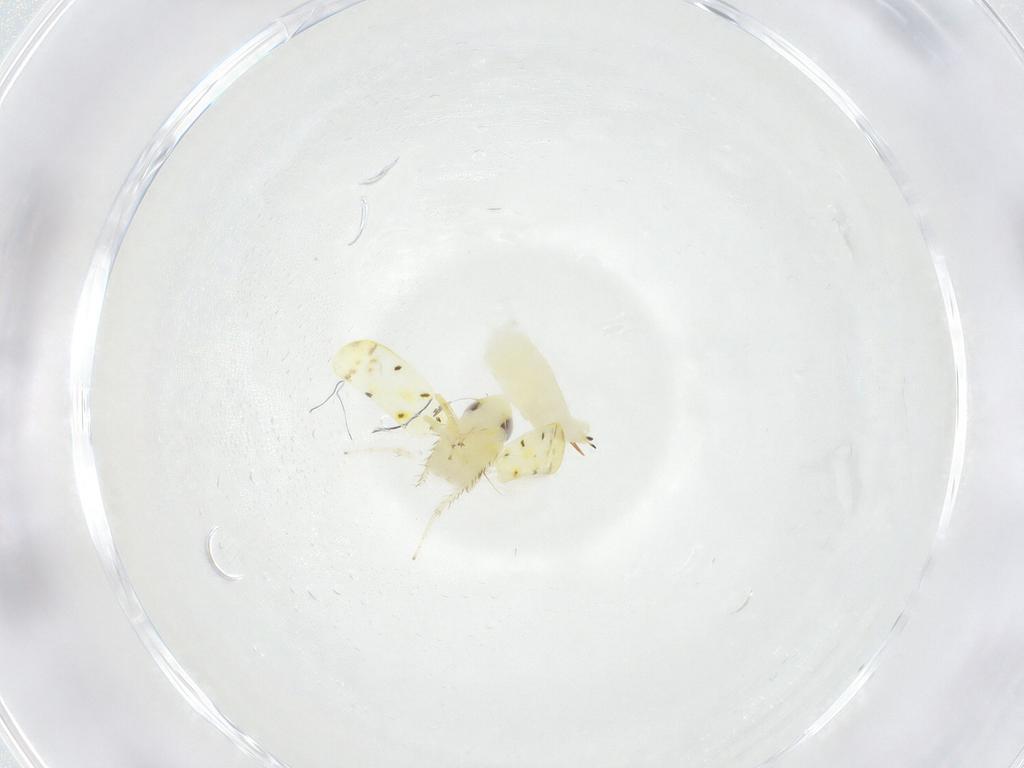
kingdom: Animalia
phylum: Arthropoda
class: Insecta
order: Hemiptera
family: Cicadellidae
